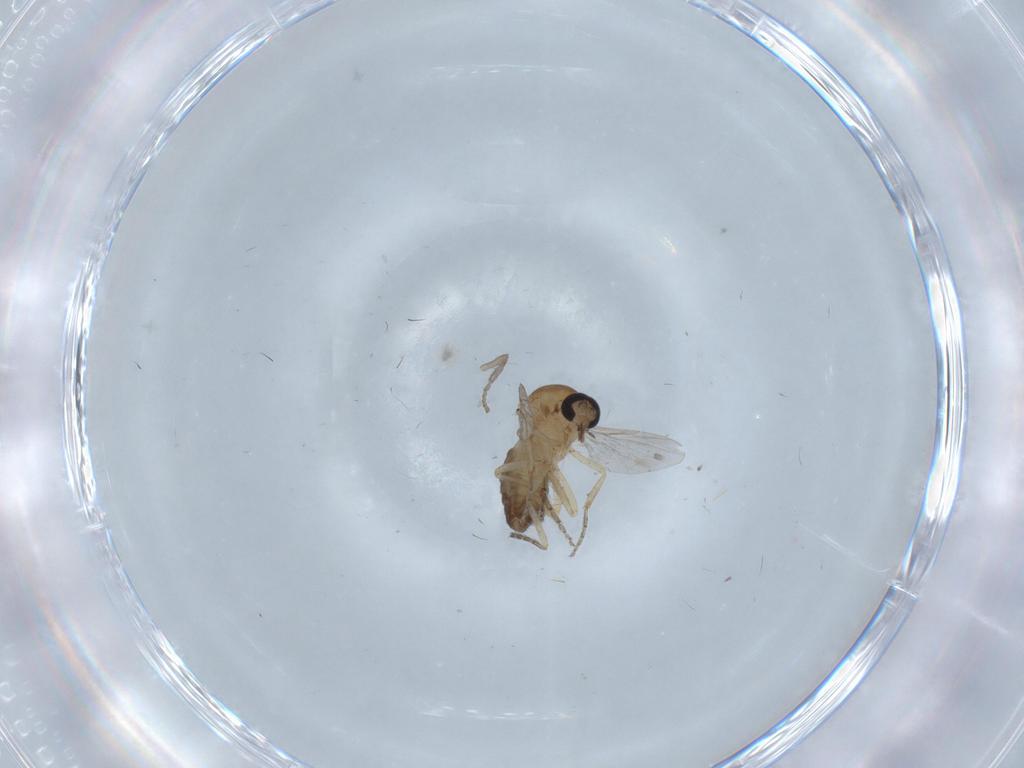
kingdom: Animalia
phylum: Arthropoda
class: Insecta
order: Diptera
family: Ceratopogonidae
